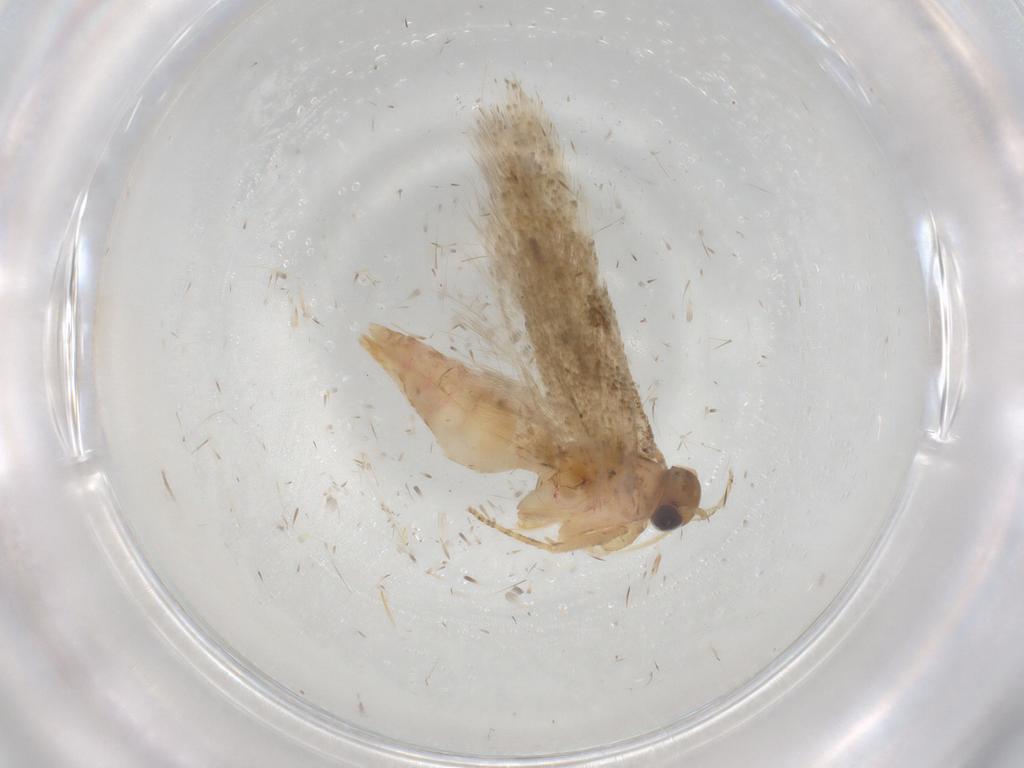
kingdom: Animalia
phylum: Arthropoda
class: Insecta
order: Lepidoptera
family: Gelechiidae
